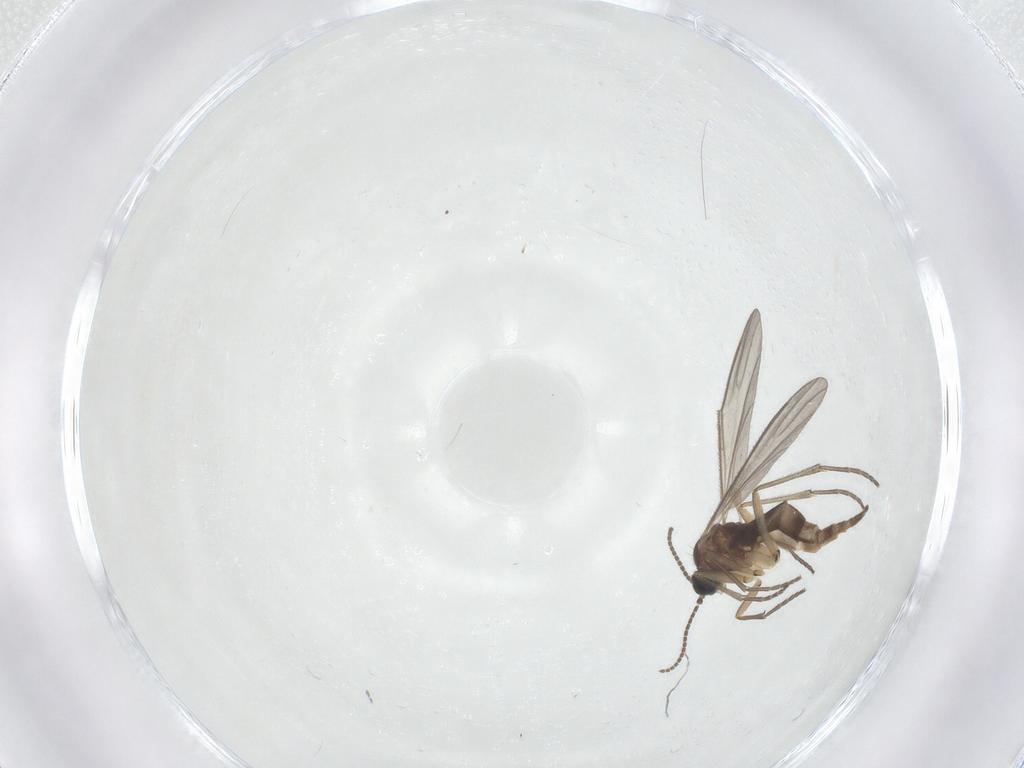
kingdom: Animalia
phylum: Arthropoda
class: Insecta
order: Diptera
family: Sciaridae
